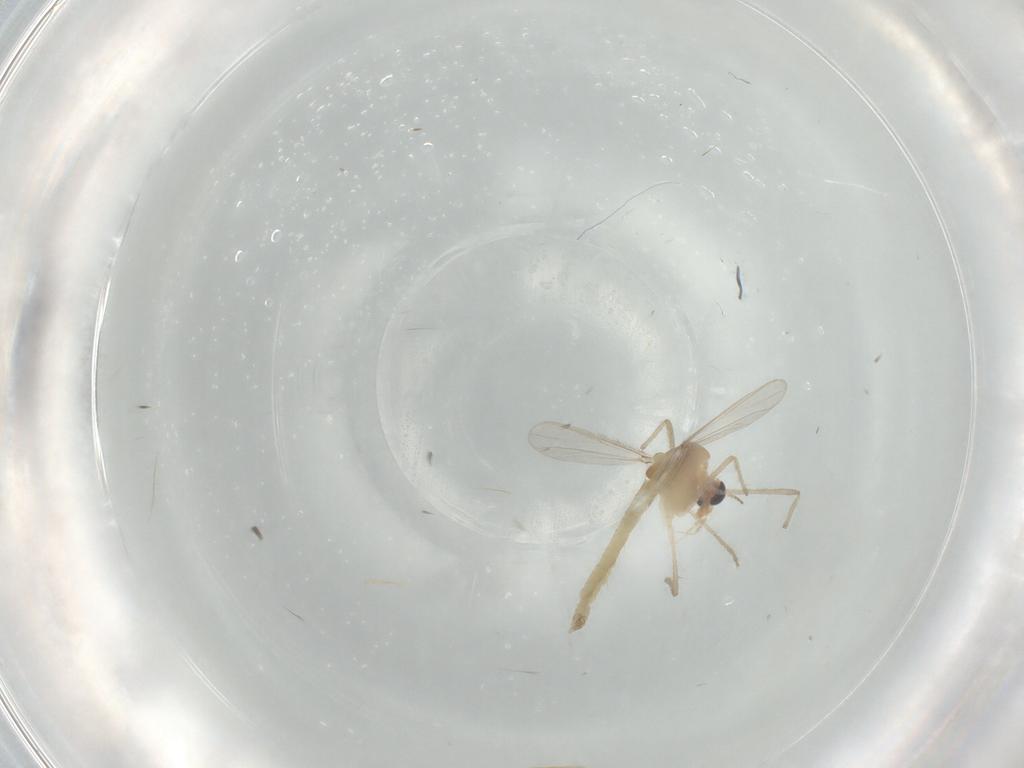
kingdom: Animalia
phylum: Arthropoda
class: Insecta
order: Diptera
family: Chironomidae
